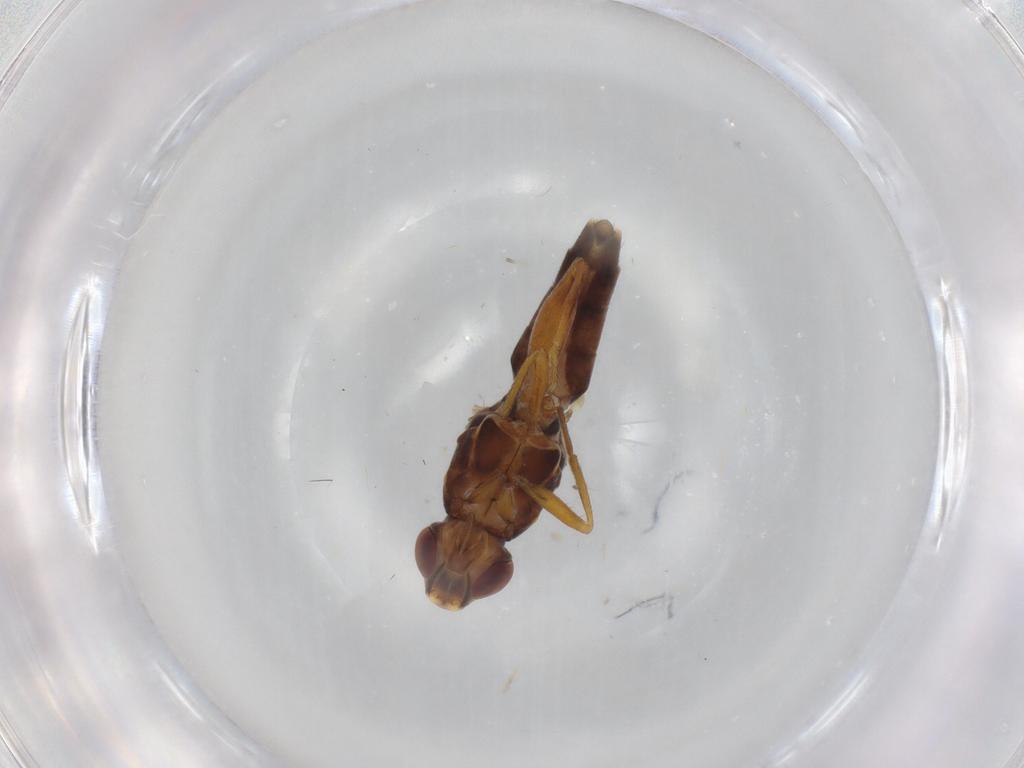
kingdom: Animalia
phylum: Arthropoda
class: Insecta
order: Diptera
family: Chloropidae
